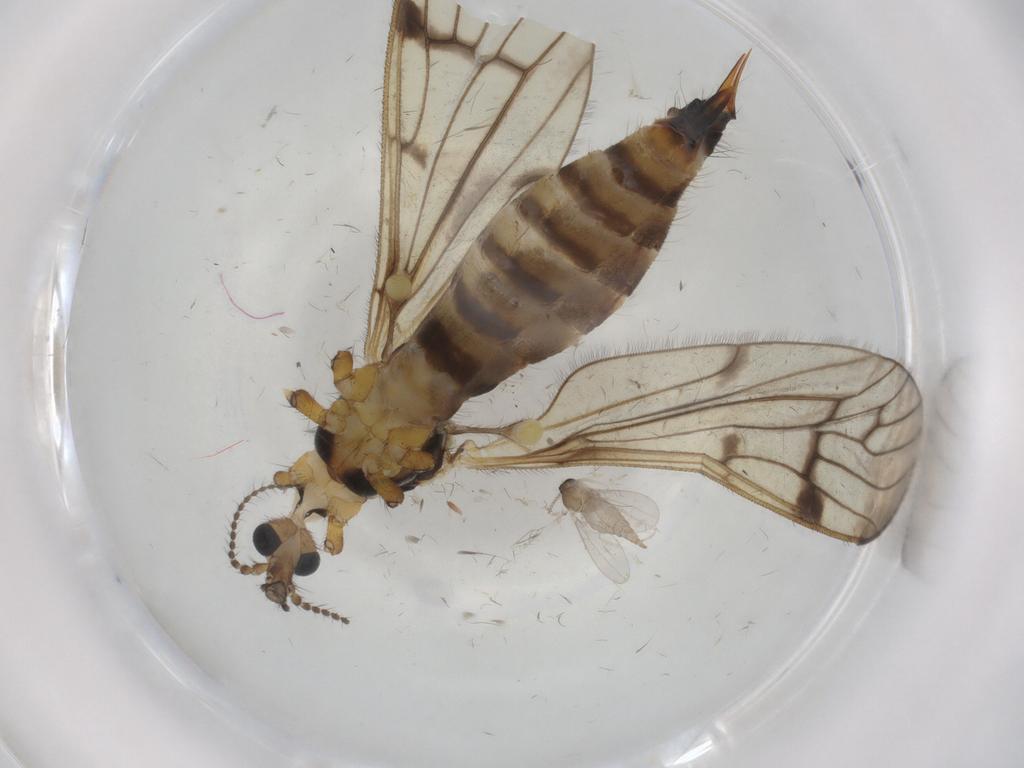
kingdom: Animalia
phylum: Arthropoda
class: Insecta
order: Diptera
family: Limoniidae
